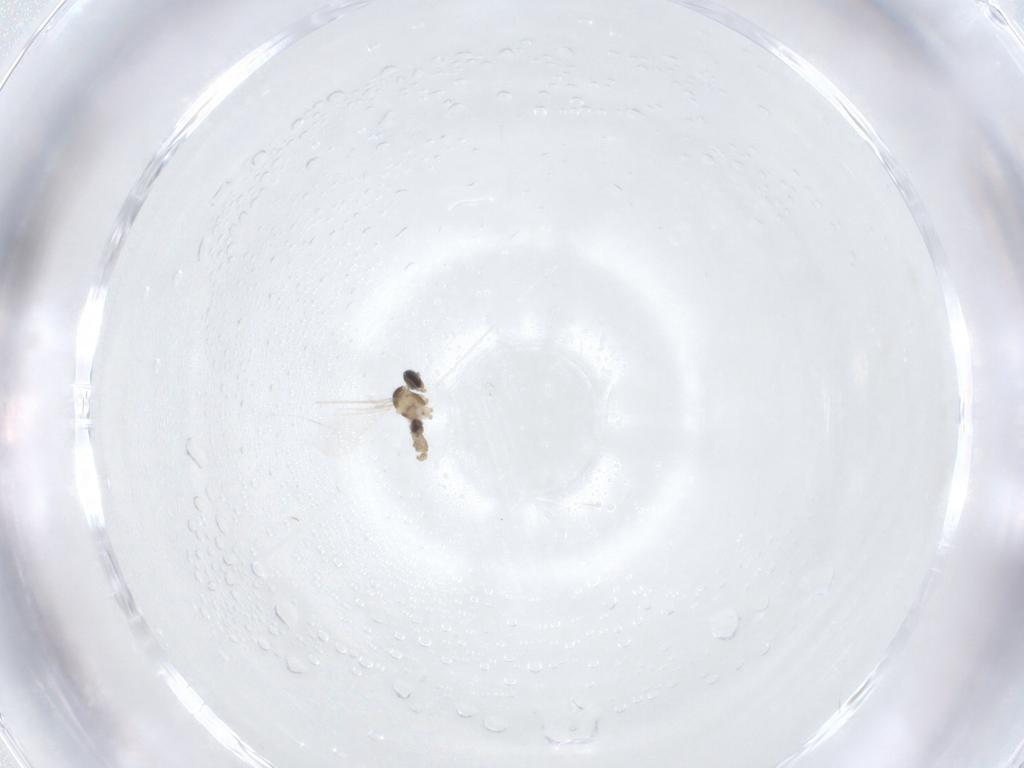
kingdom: Animalia
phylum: Arthropoda
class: Insecta
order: Diptera
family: Cecidomyiidae
